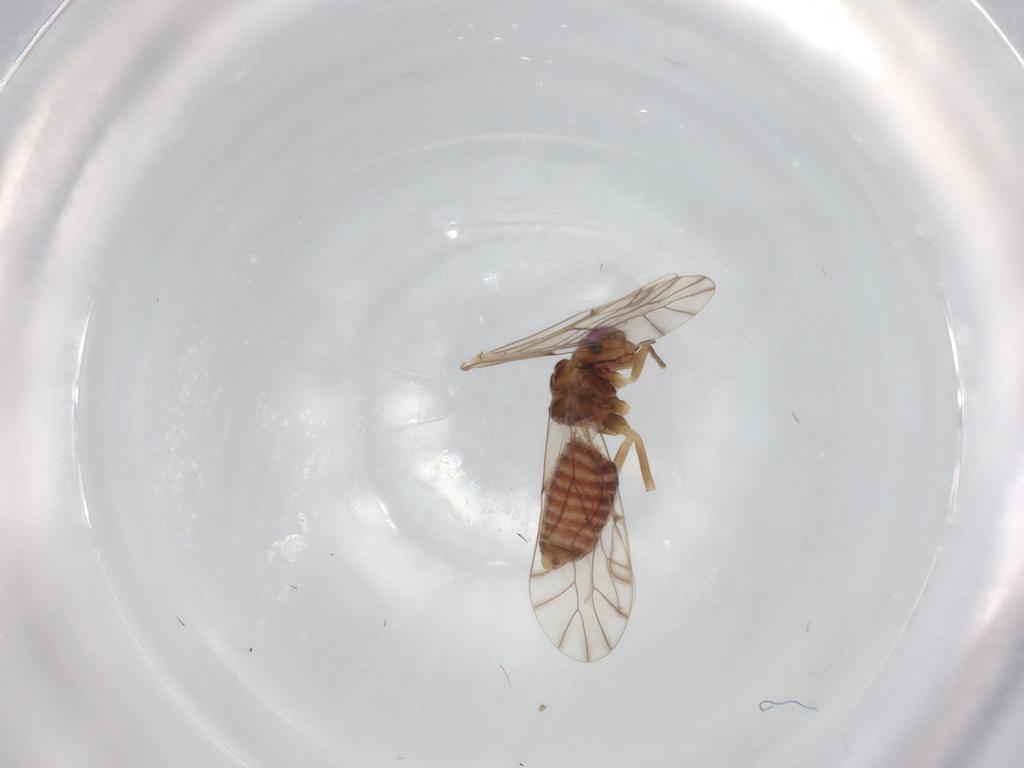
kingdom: Animalia
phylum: Arthropoda
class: Insecta
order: Psocodea
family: Lachesillidae
